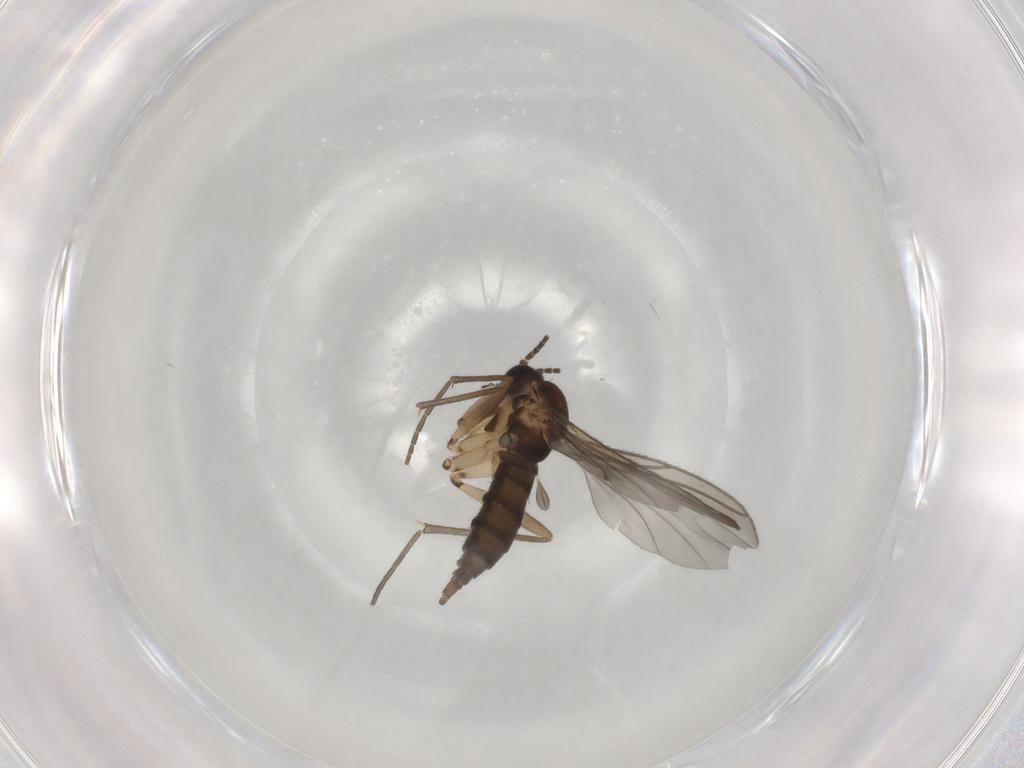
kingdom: Animalia
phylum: Arthropoda
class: Insecta
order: Diptera
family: Sciaridae
